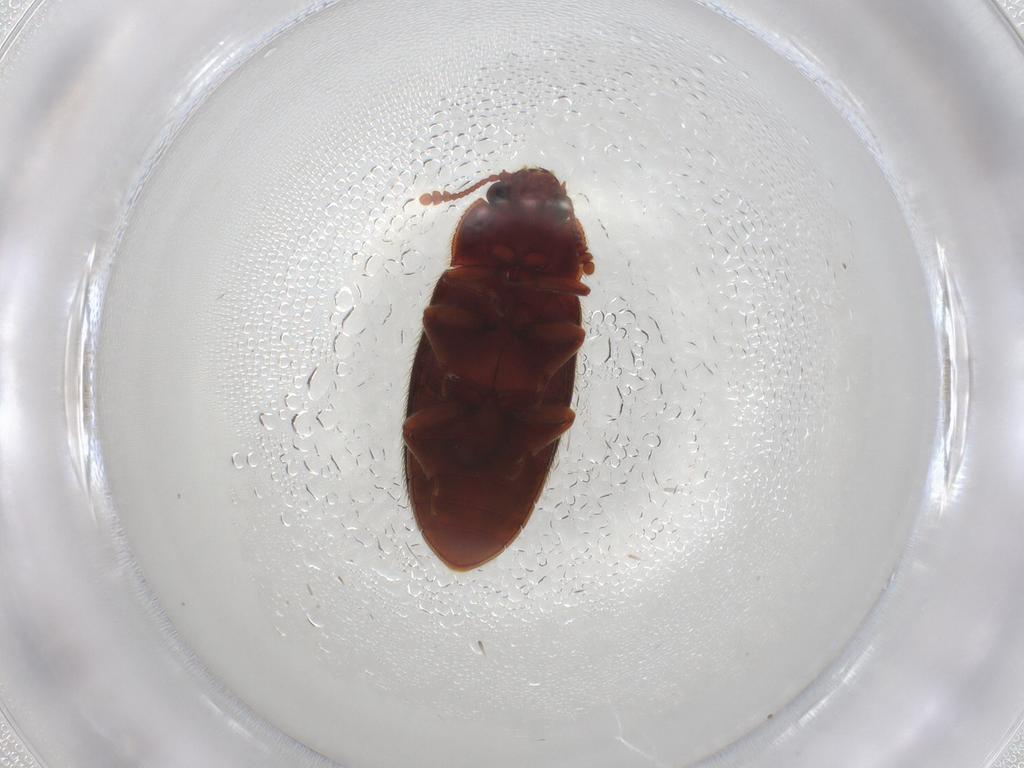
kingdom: Animalia
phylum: Arthropoda
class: Insecta
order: Coleoptera
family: Biphyllidae
